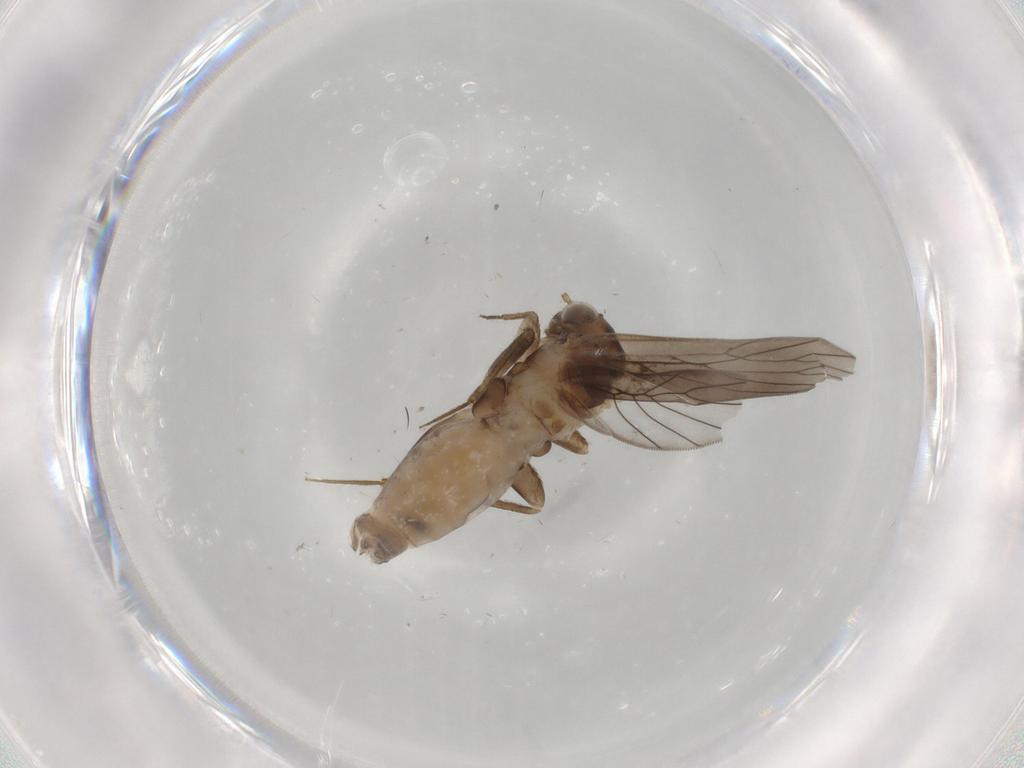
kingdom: Animalia
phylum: Arthropoda
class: Insecta
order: Psocodea
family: Lepidopsocidae
